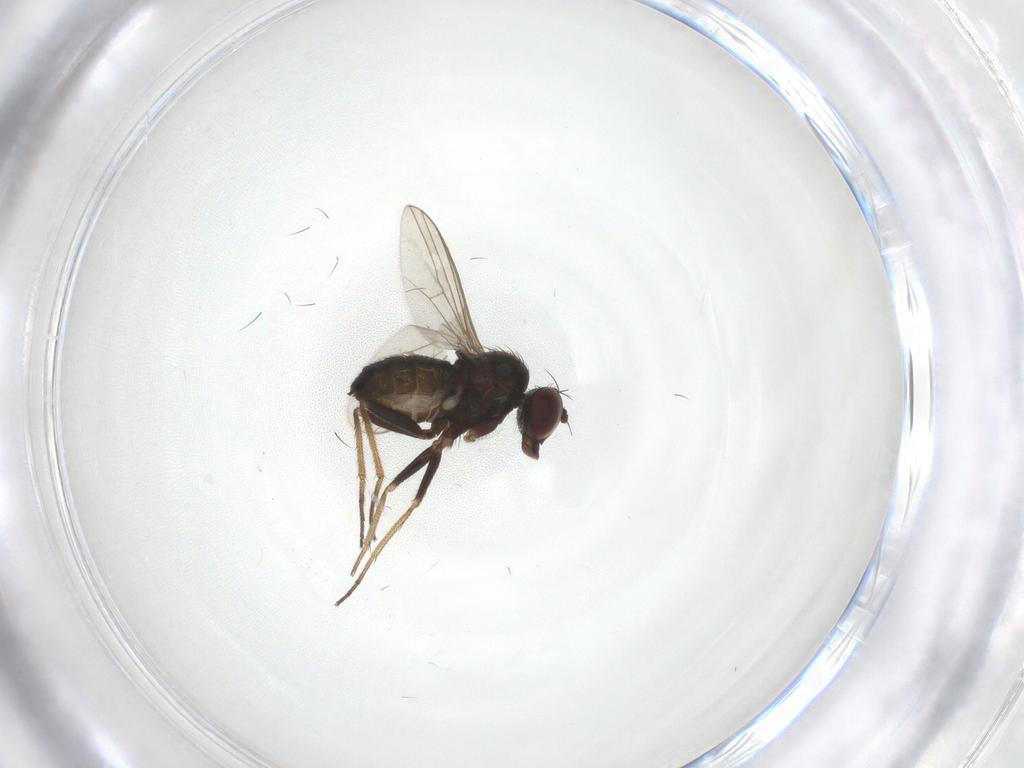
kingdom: Animalia
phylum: Arthropoda
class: Insecta
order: Diptera
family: Dolichopodidae
